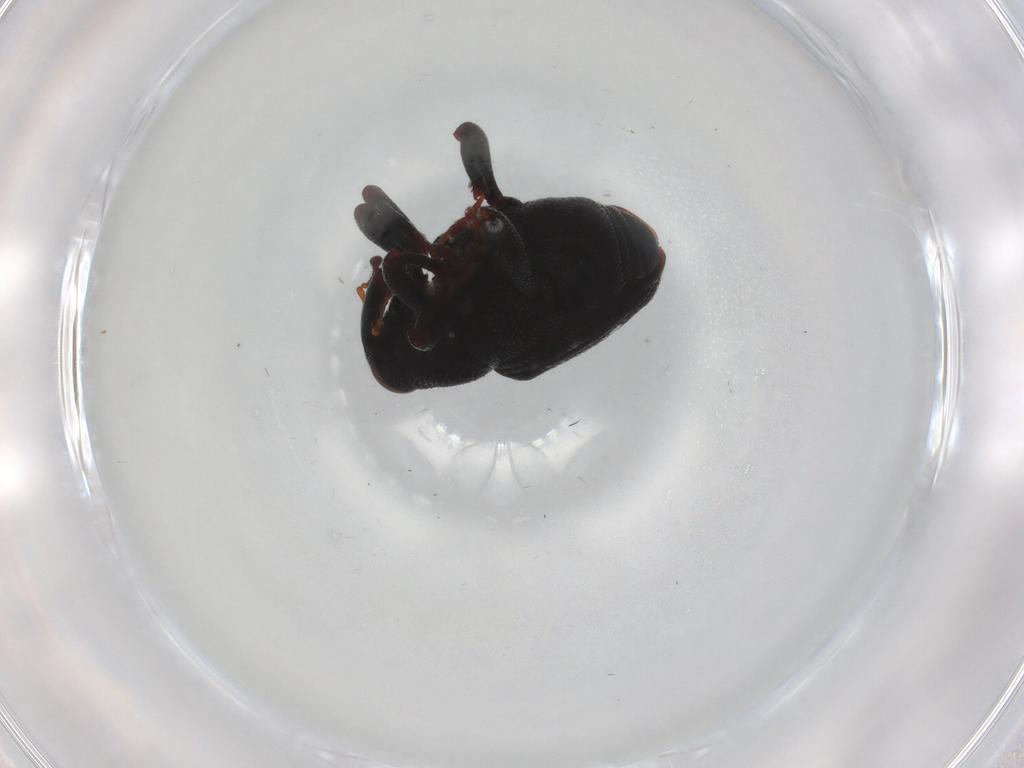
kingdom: Animalia
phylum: Arthropoda
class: Insecta
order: Coleoptera
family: Curculionidae
